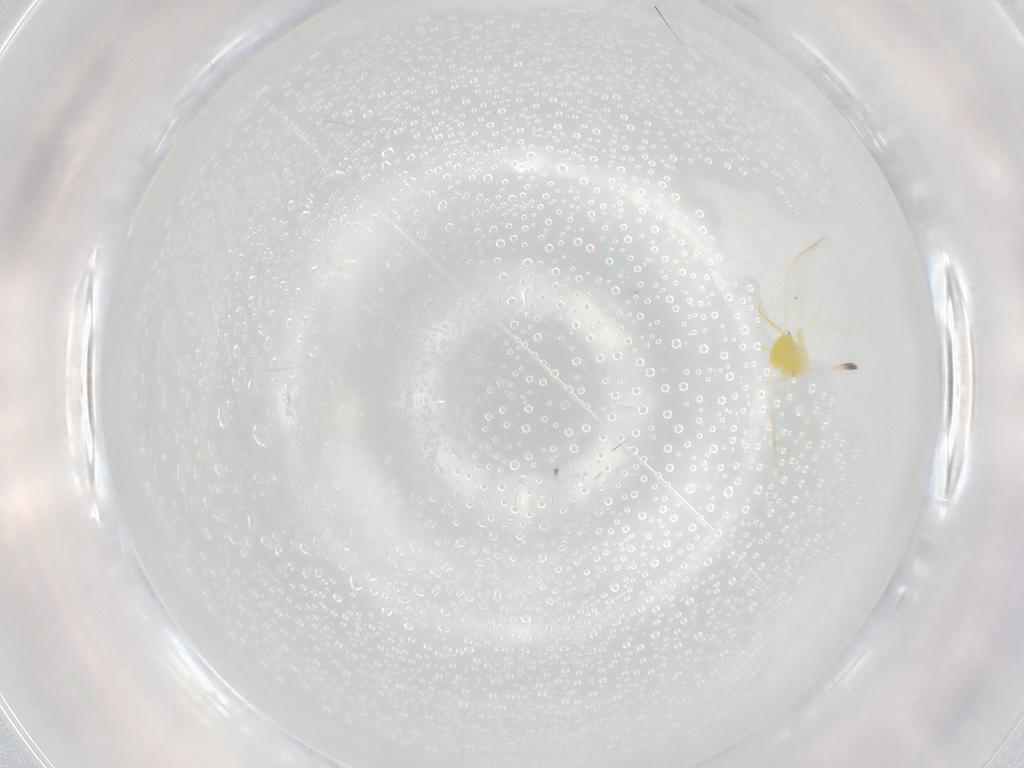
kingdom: Animalia
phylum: Arthropoda
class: Insecta
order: Hemiptera
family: Aleyrodidae
